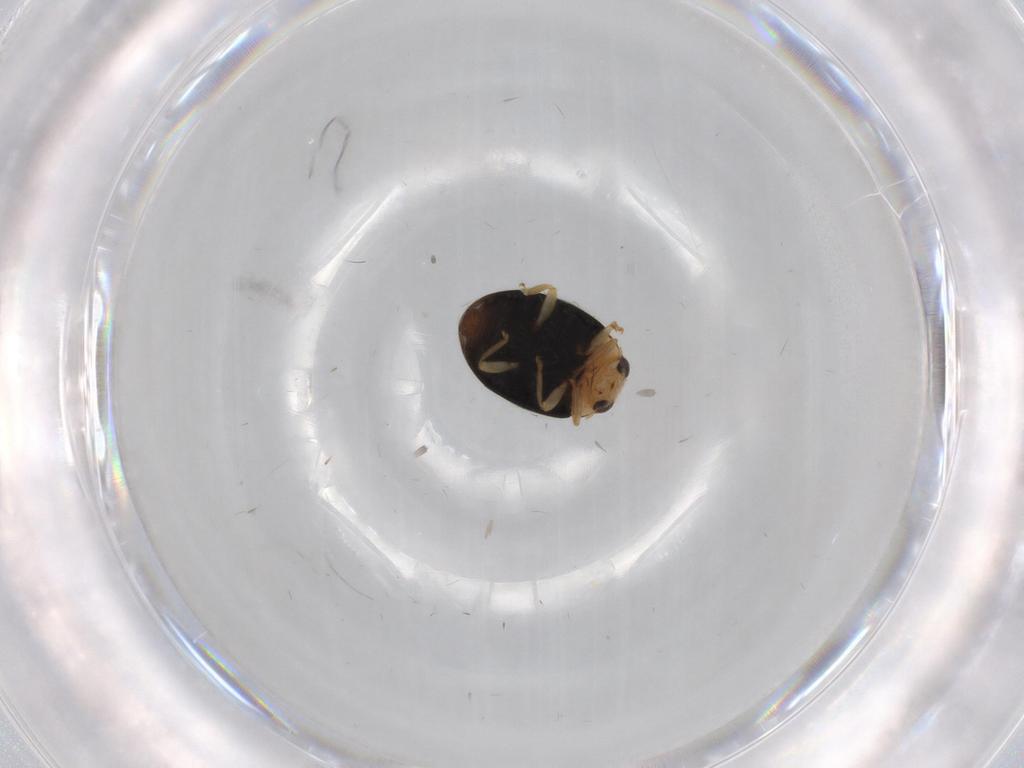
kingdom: Animalia
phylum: Arthropoda
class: Insecta
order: Coleoptera
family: Coccinellidae
